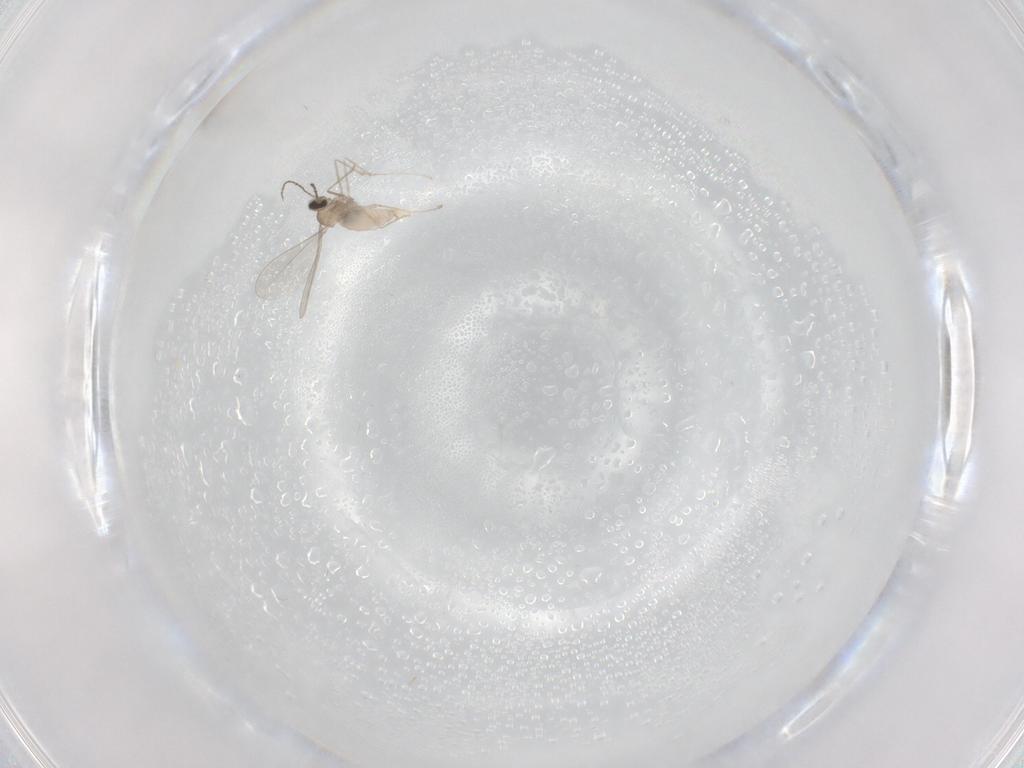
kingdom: Animalia
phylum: Arthropoda
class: Insecta
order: Diptera
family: Cecidomyiidae
